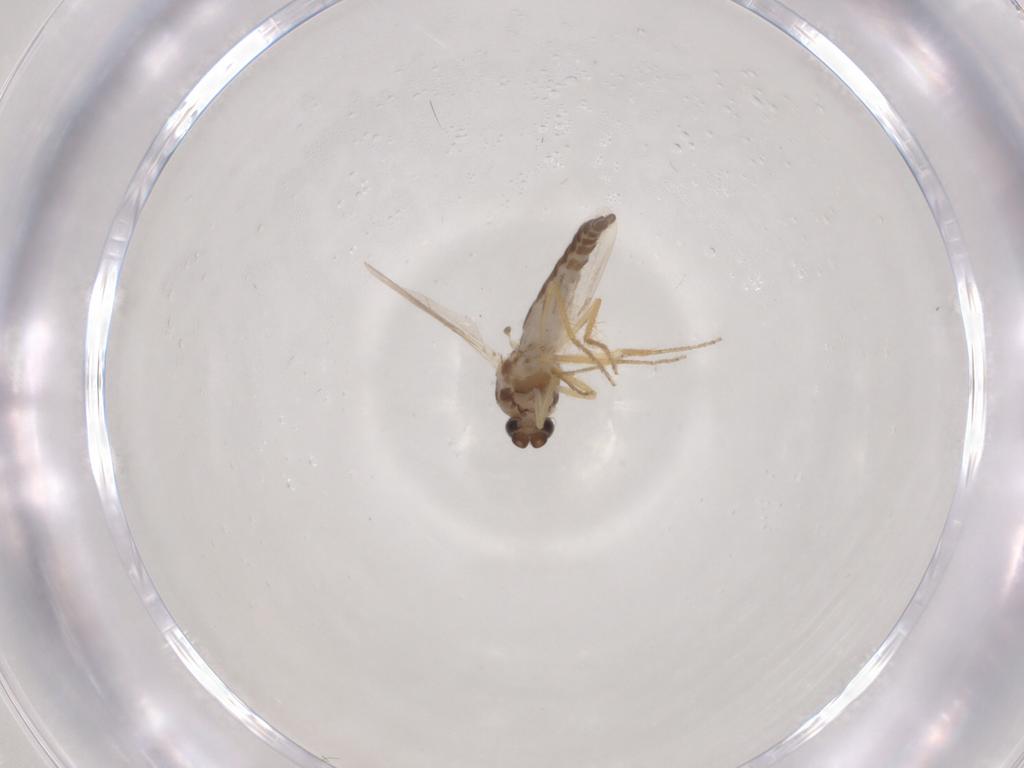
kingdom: Animalia
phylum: Arthropoda
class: Insecta
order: Diptera
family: Ceratopogonidae
